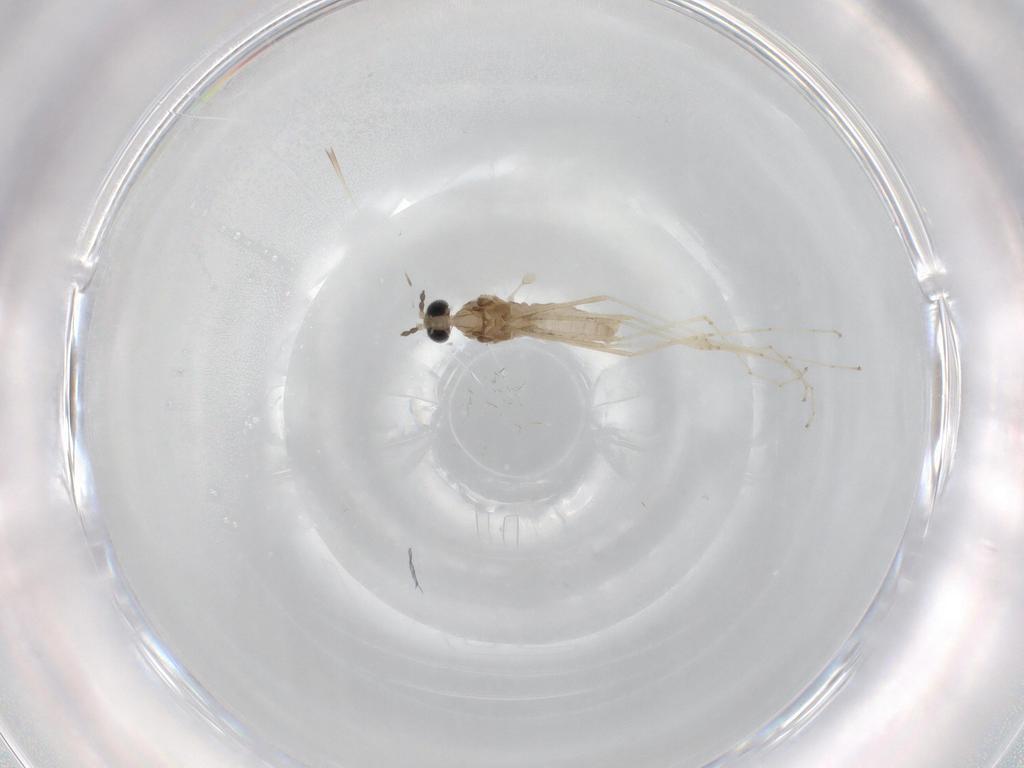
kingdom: Animalia
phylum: Arthropoda
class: Insecta
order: Diptera
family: Cecidomyiidae
